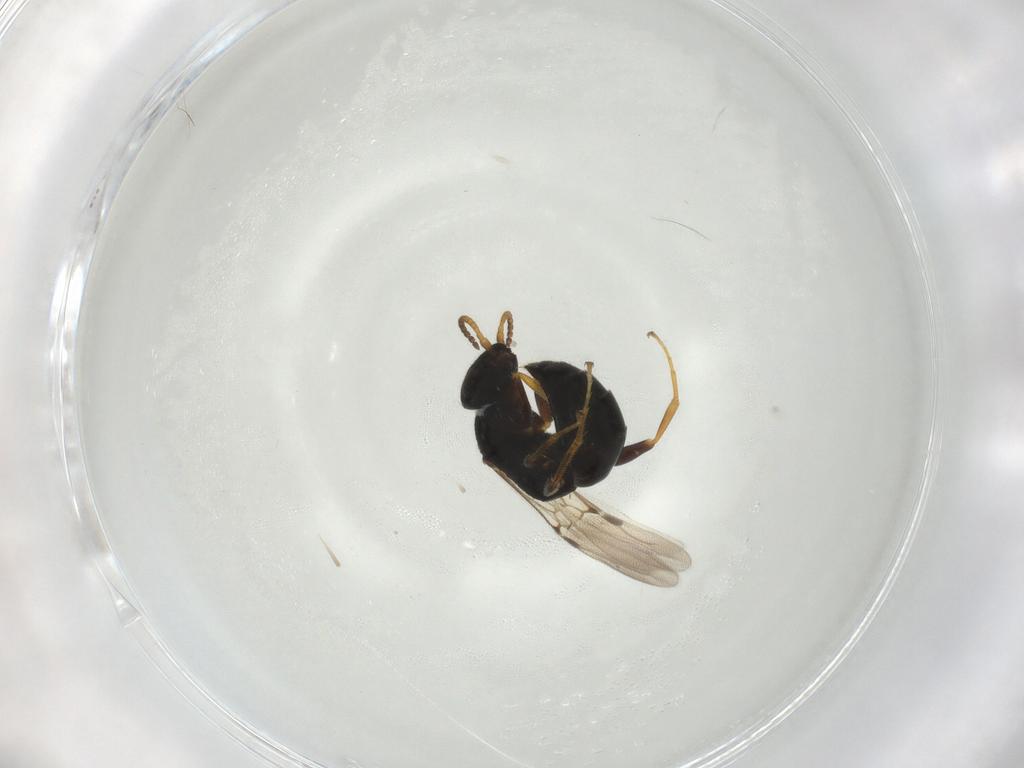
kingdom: Animalia
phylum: Arthropoda
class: Insecta
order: Hymenoptera
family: Bethylidae
